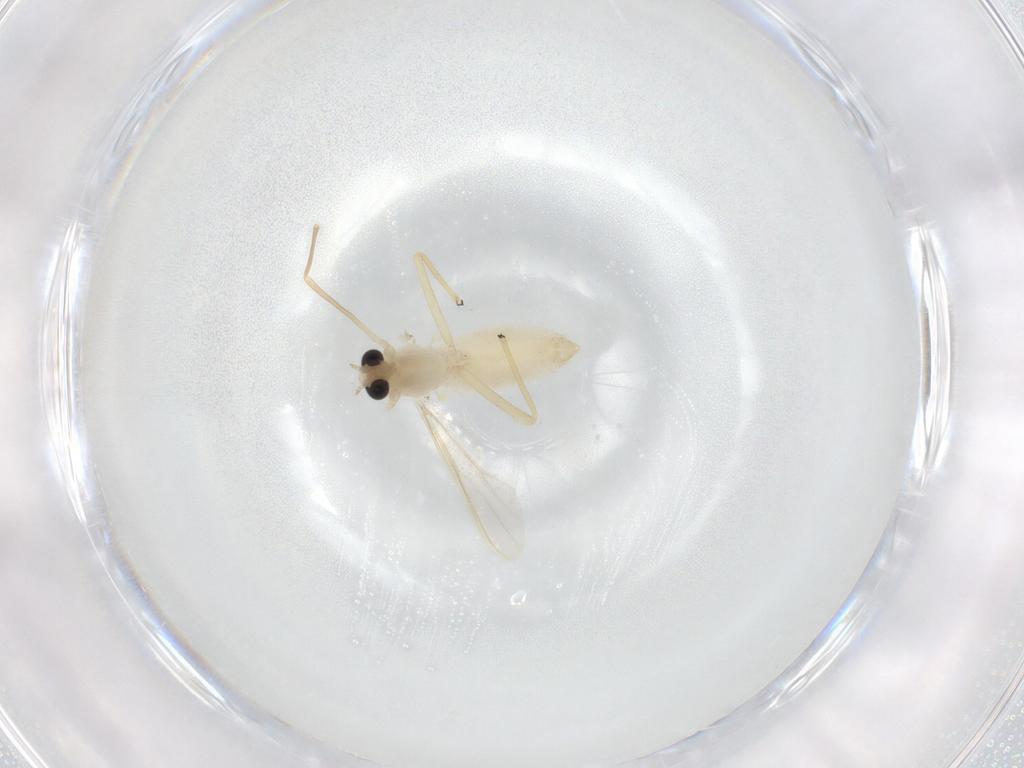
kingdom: Animalia
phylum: Arthropoda
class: Insecta
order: Diptera
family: Chironomidae
